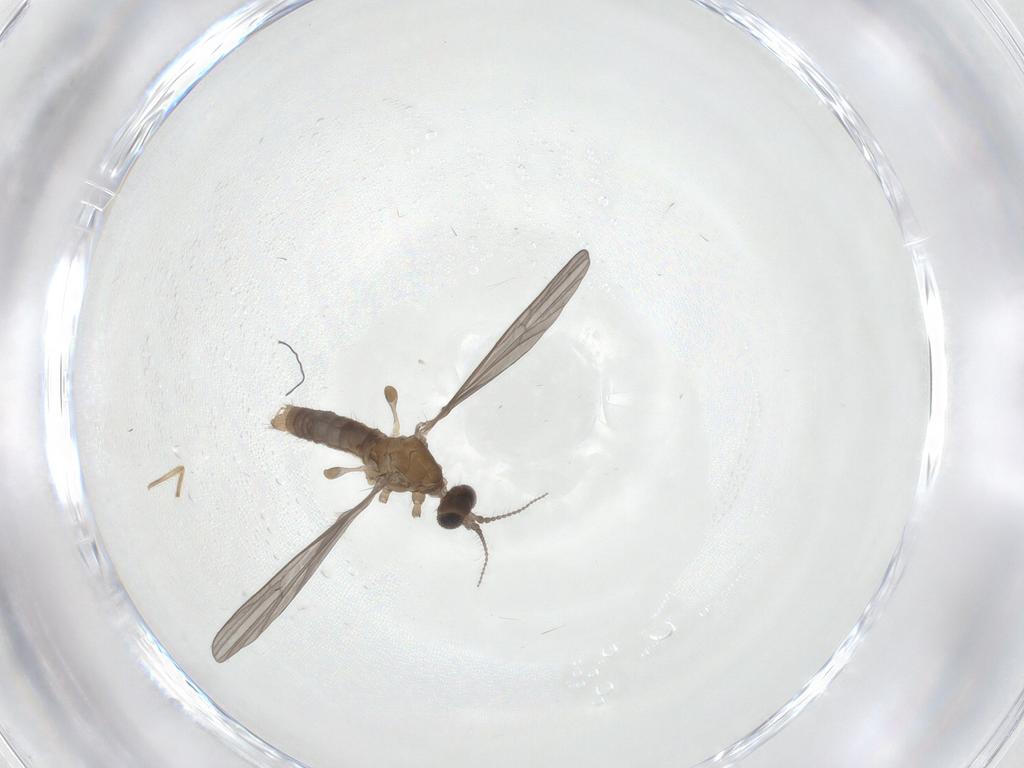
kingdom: Animalia
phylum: Arthropoda
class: Insecta
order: Diptera
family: Limoniidae
